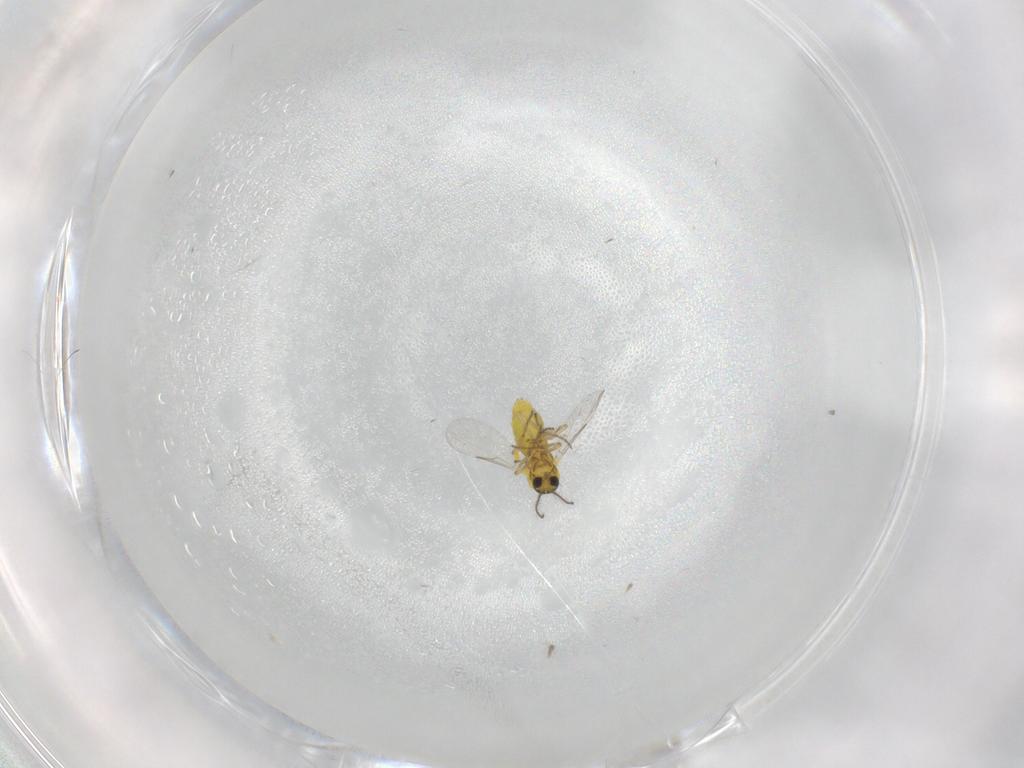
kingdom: Animalia
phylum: Arthropoda
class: Insecta
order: Diptera
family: Ceratopogonidae
